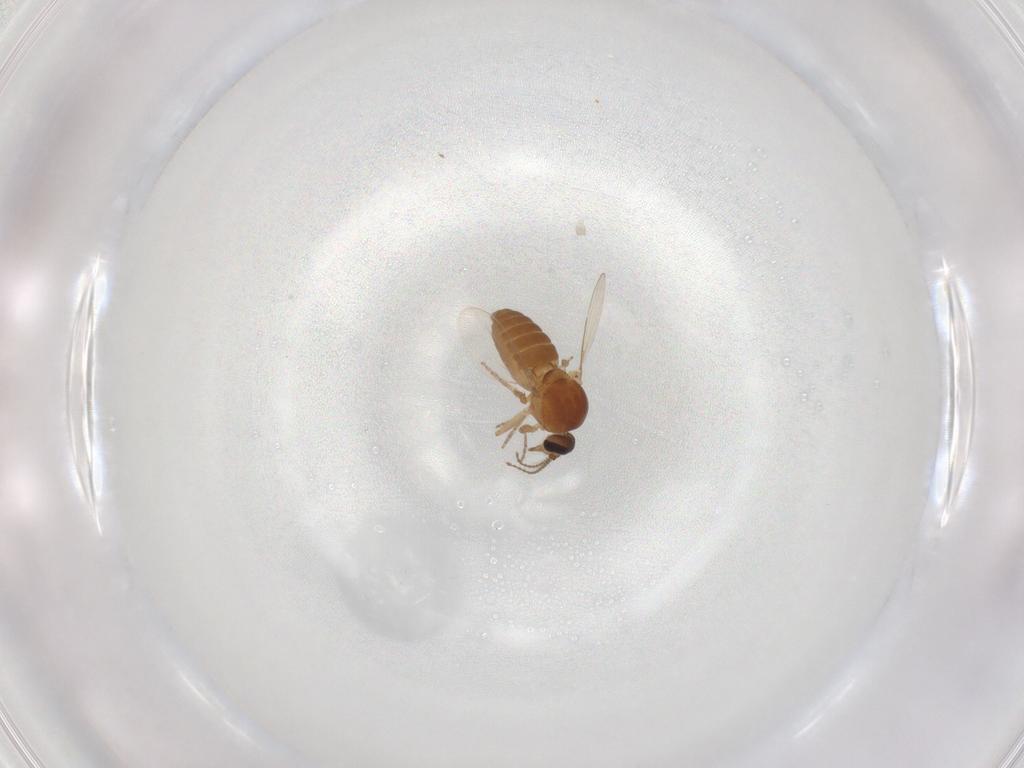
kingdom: Animalia
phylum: Arthropoda
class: Insecta
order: Diptera
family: Ceratopogonidae
